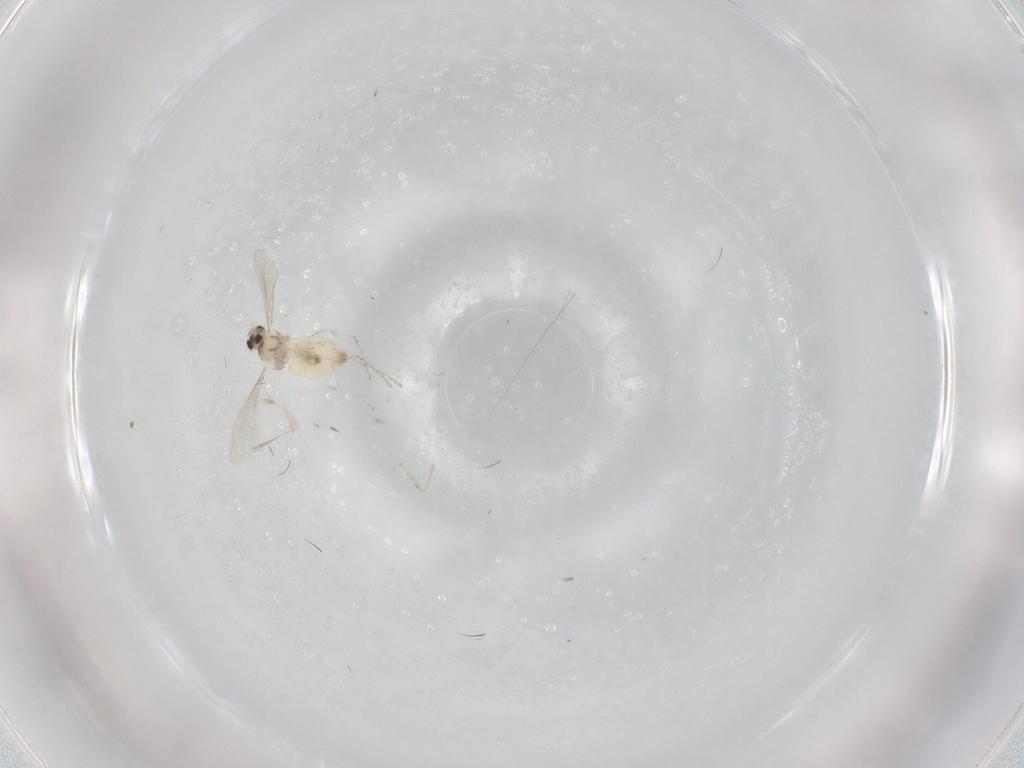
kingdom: Animalia
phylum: Arthropoda
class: Insecta
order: Diptera
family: Cecidomyiidae
